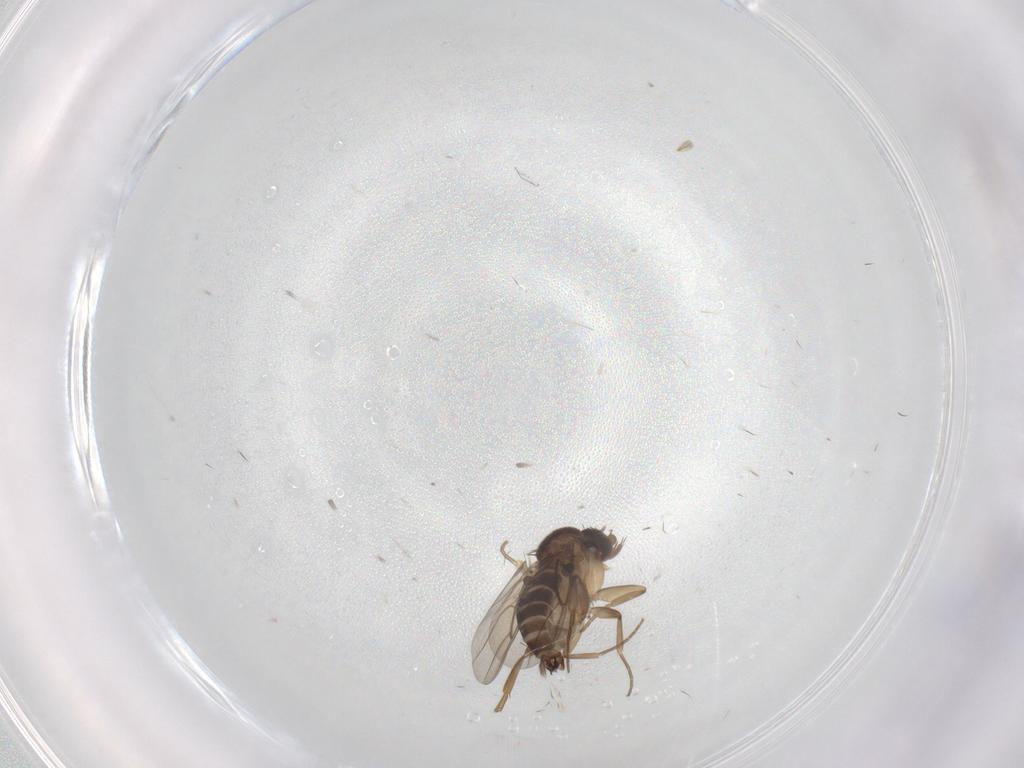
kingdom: Animalia
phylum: Arthropoda
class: Insecta
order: Diptera
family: Phoridae
